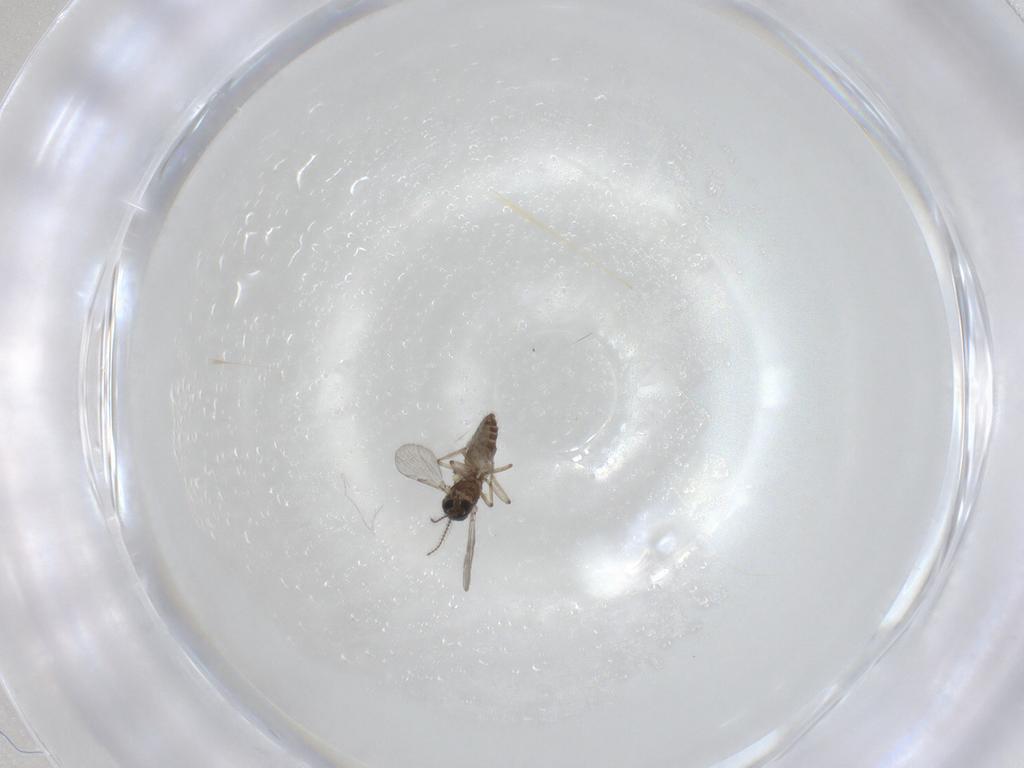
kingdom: Animalia
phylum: Arthropoda
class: Insecta
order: Diptera
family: Ceratopogonidae
